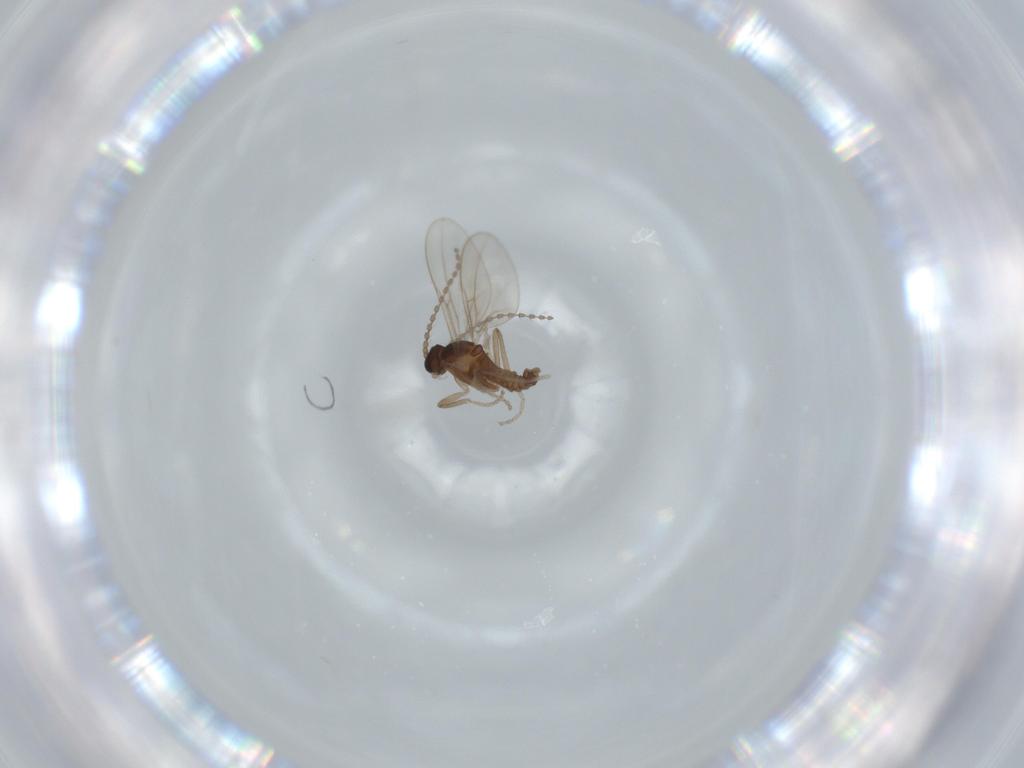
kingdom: Animalia
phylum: Arthropoda
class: Insecta
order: Diptera
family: Cecidomyiidae
